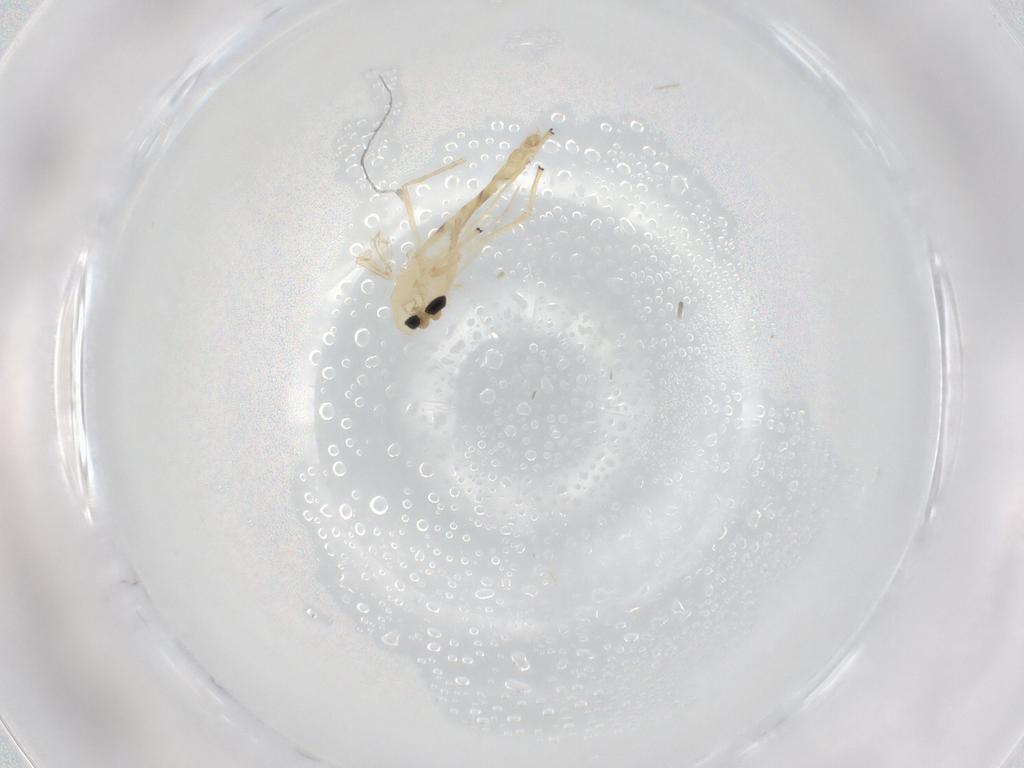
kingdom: Animalia
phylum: Arthropoda
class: Insecta
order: Diptera
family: Chironomidae
